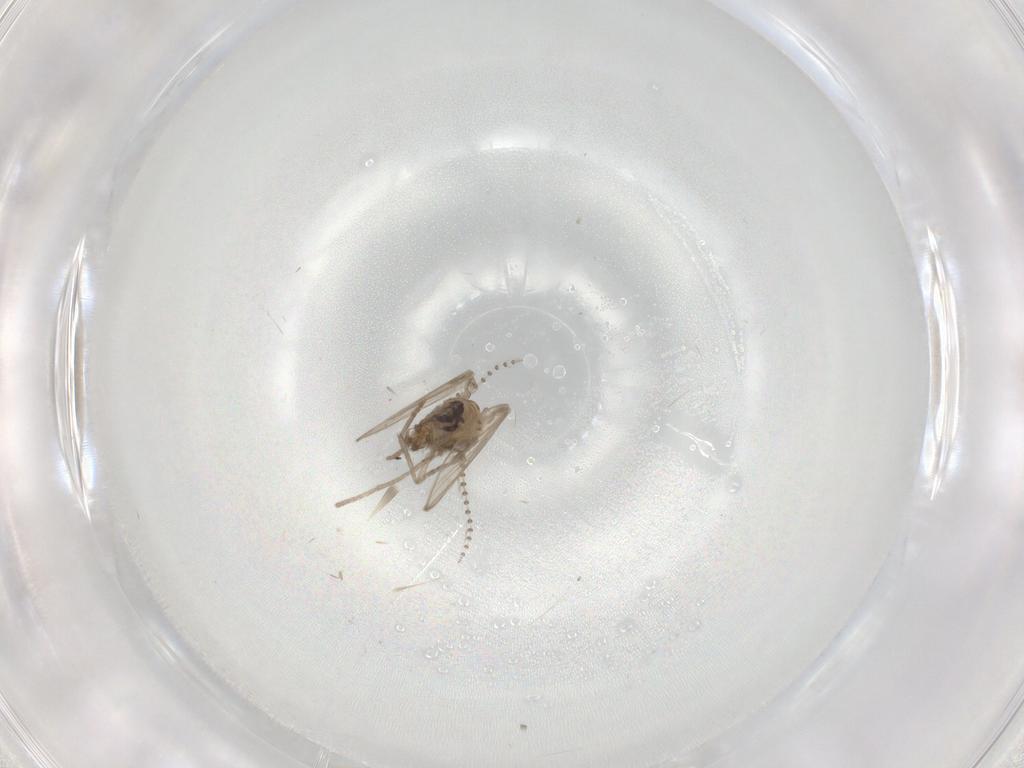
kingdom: Animalia
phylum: Arthropoda
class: Insecta
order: Diptera
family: Psychodidae
